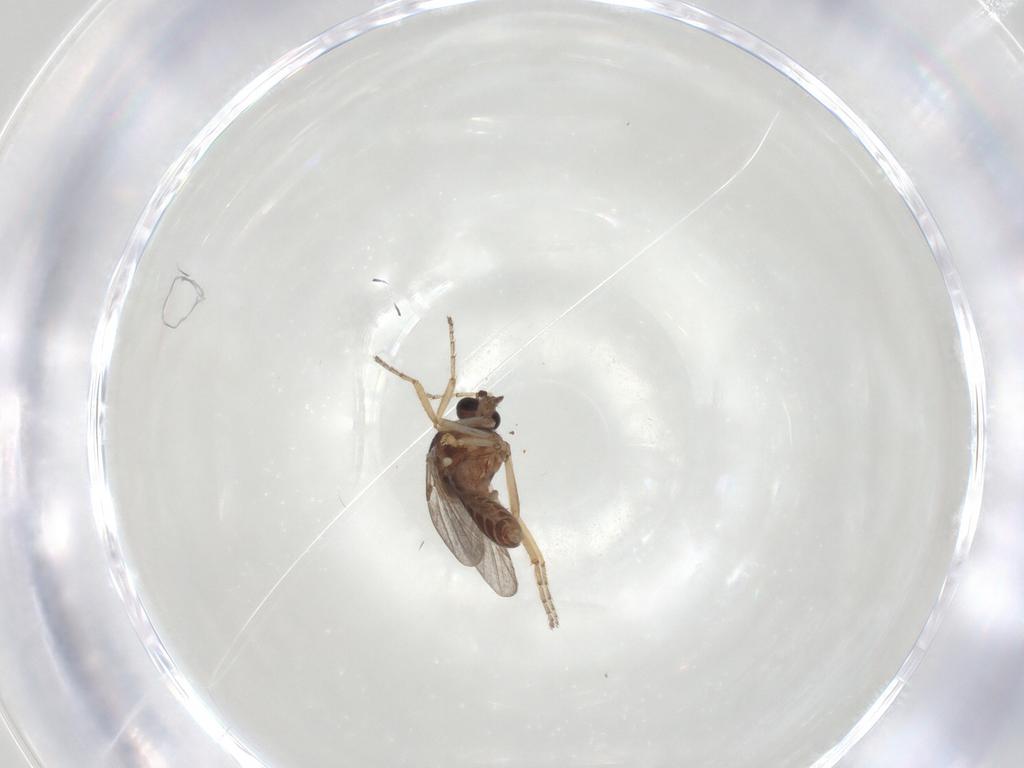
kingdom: Animalia
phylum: Arthropoda
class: Insecta
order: Diptera
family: Ceratopogonidae
